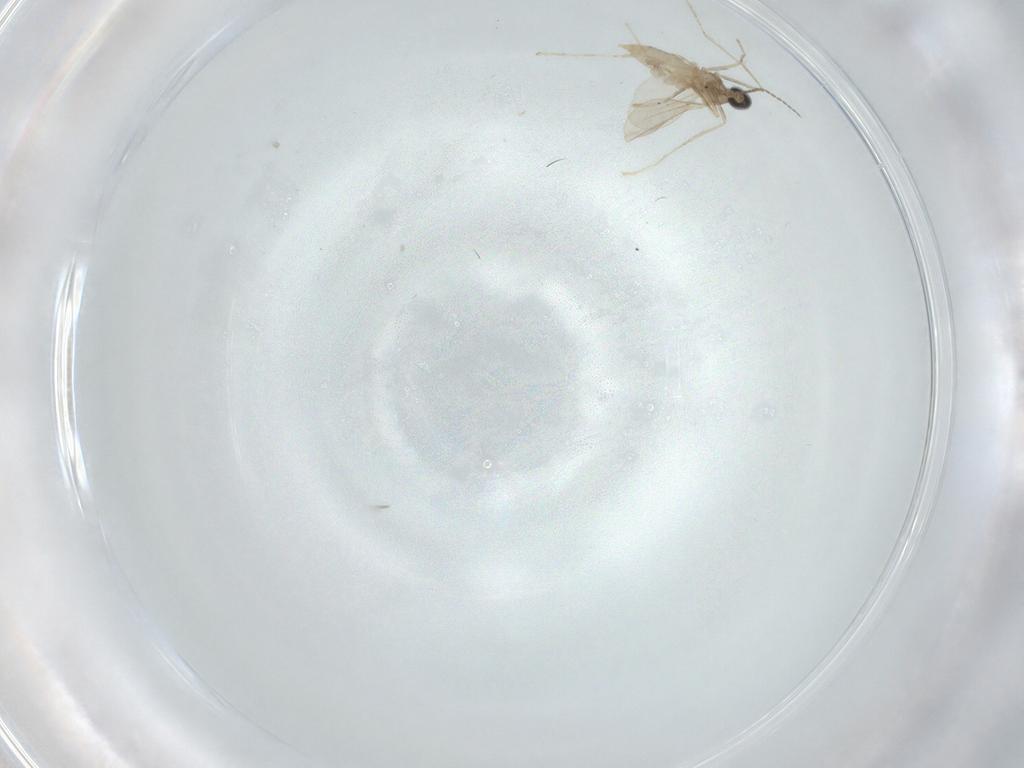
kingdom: Animalia
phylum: Arthropoda
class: Insecta
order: Diptera
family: Cecidomyiidae
